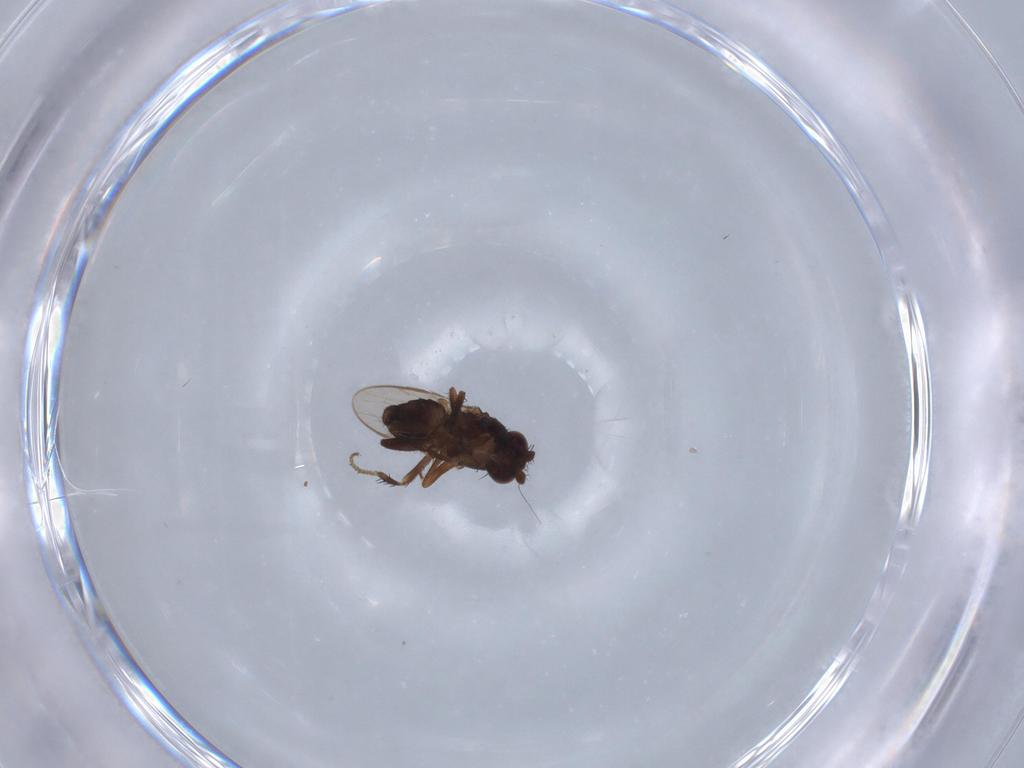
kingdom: Animalia
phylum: Arthropoda
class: Insecta
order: Diptera
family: Sphaeroceridae
